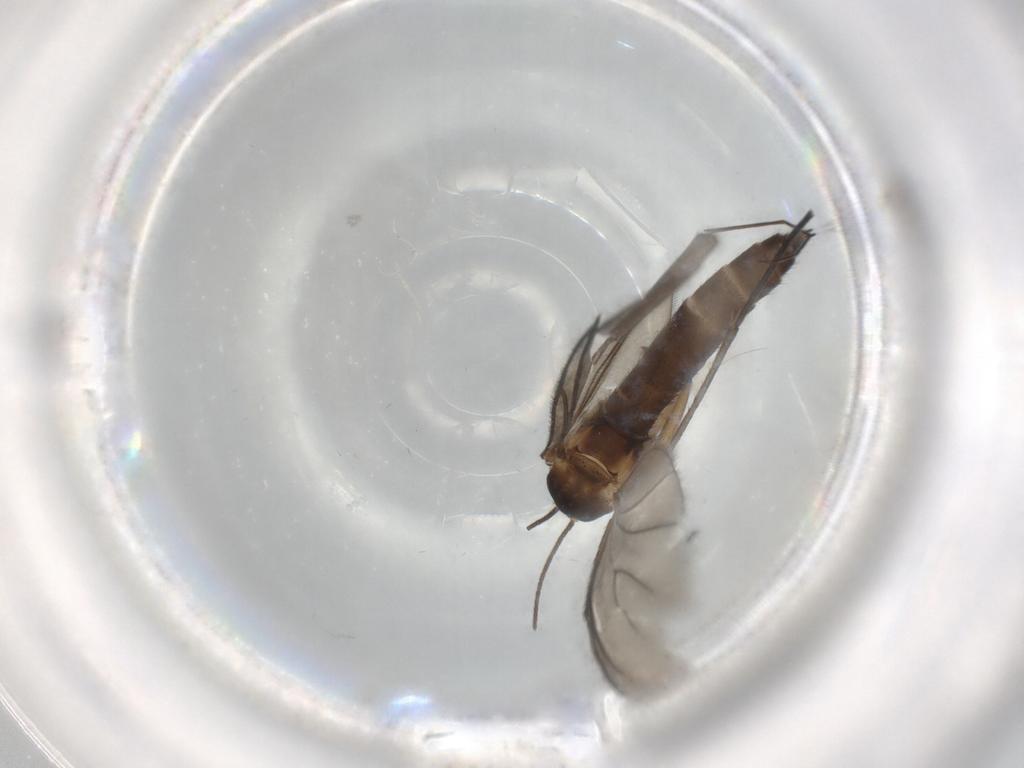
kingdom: Animalia
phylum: Arthropoda
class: Insecta
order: Diptera
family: Sciaridae
